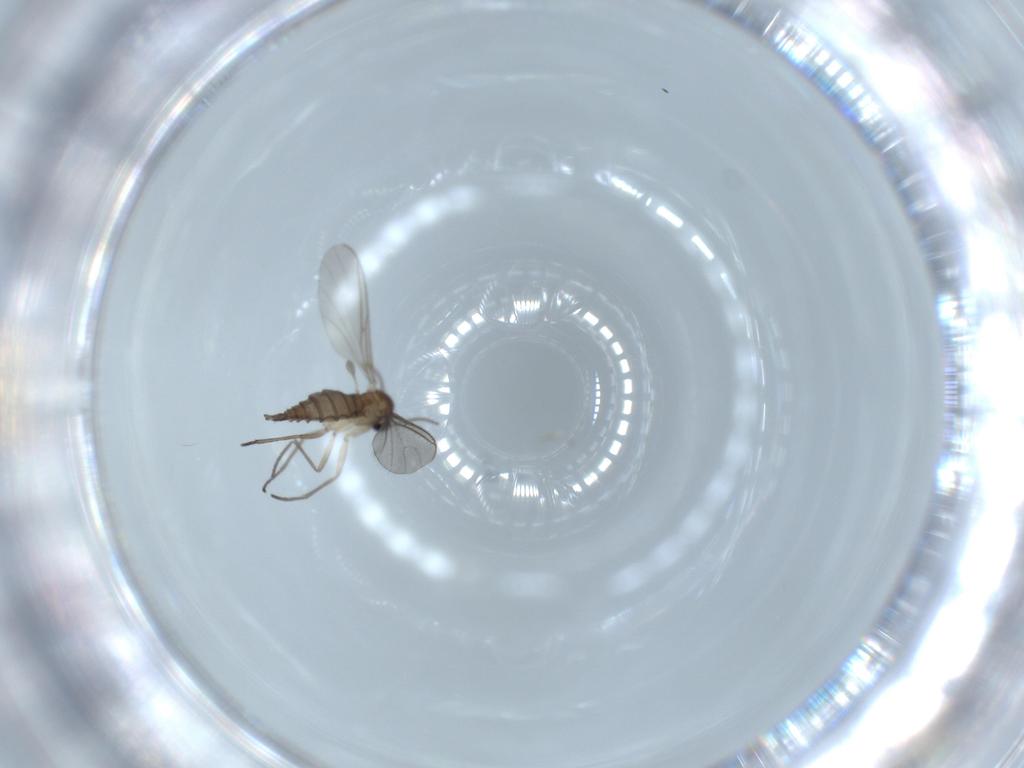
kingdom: Animalia
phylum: Arthropoda
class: Insecta
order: Diptera
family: Sciaridae
